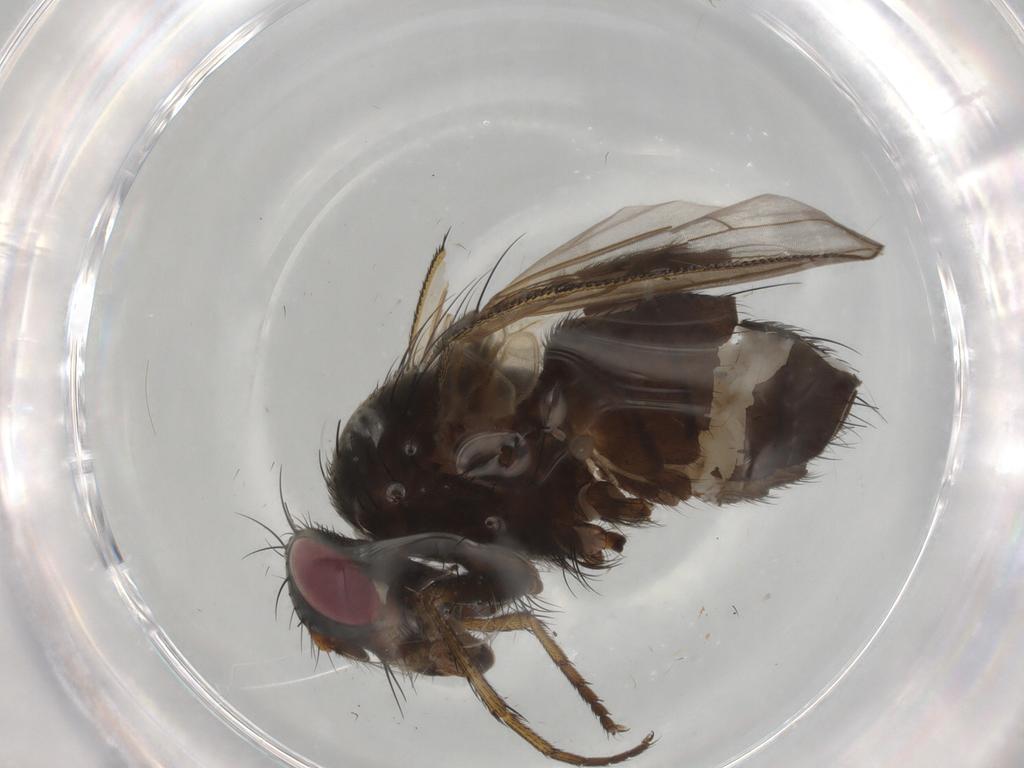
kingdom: Animalia
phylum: Arthropoda
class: Insecta
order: Diptera
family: Tachinidae
